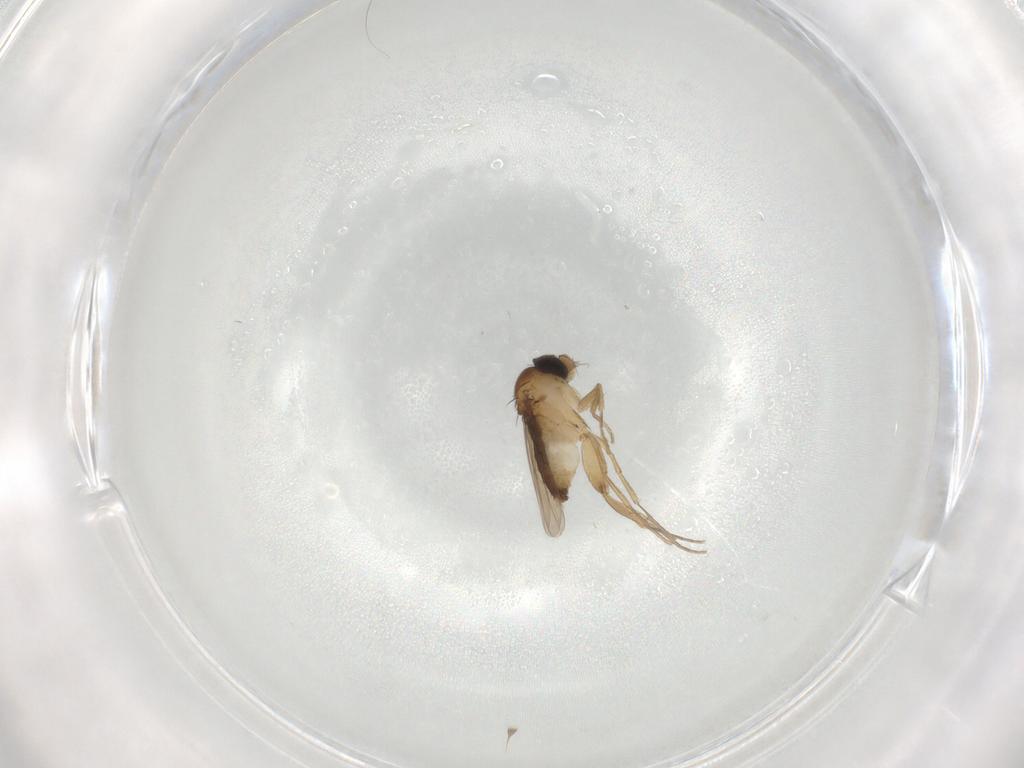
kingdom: Animalia
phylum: Arthropoda
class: Insecta
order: Diptera
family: Phoridae
